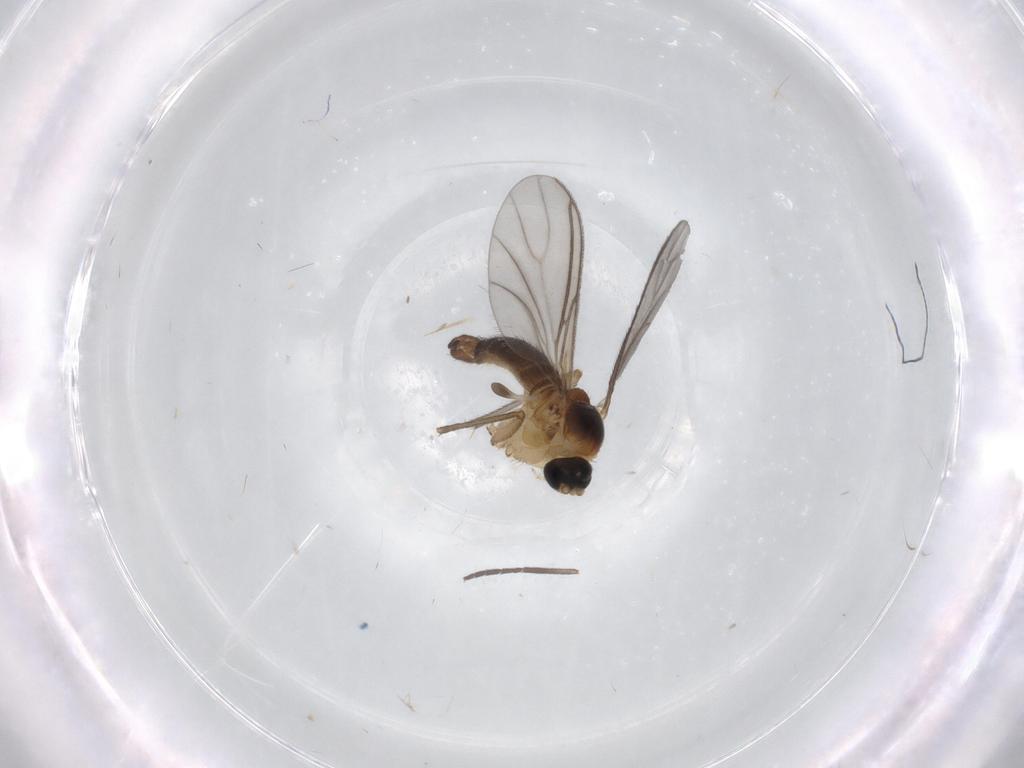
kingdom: Animalia
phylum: Arthropoda
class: Insecta
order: Diptera
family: Sciaridae
